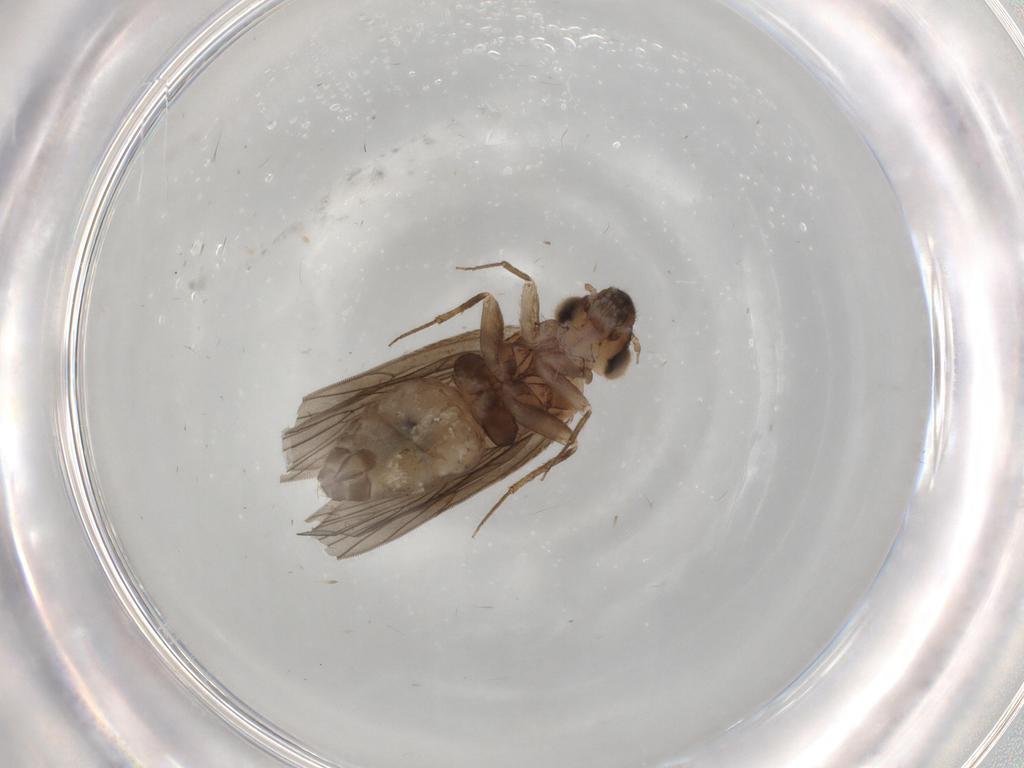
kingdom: Animalia
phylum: Arthropoda
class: Insecta
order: Psocodea
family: Lepidopsocidae
